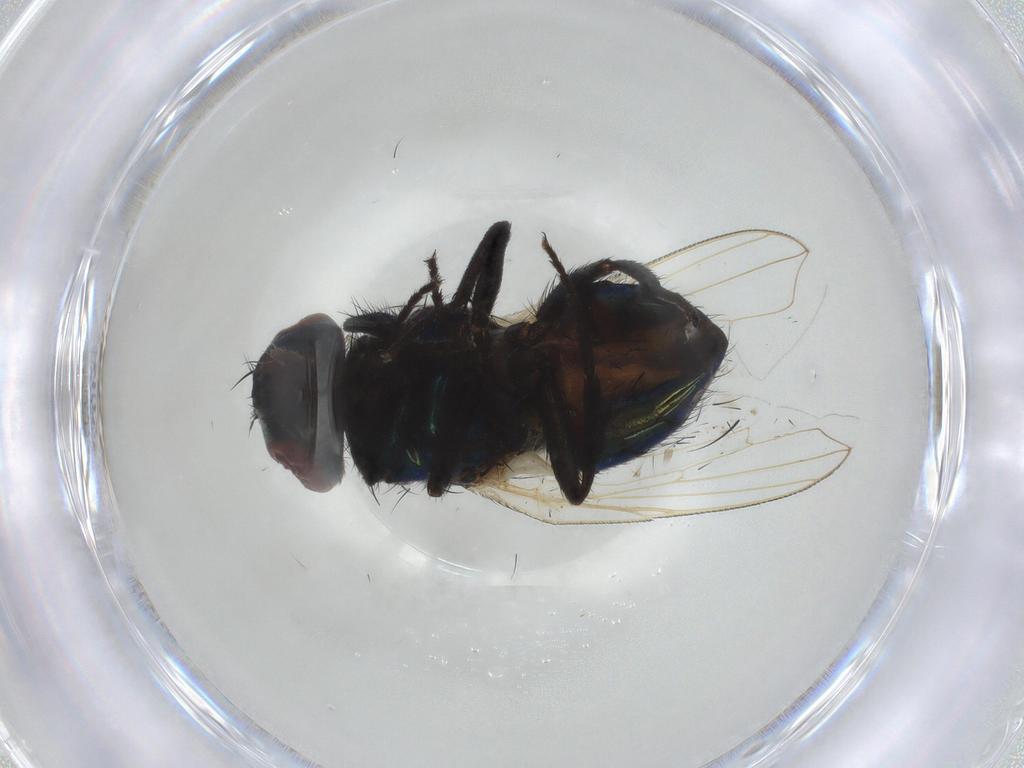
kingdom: Animalia
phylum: Arthropoda
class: Insecta
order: Diptera
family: Muscidae
